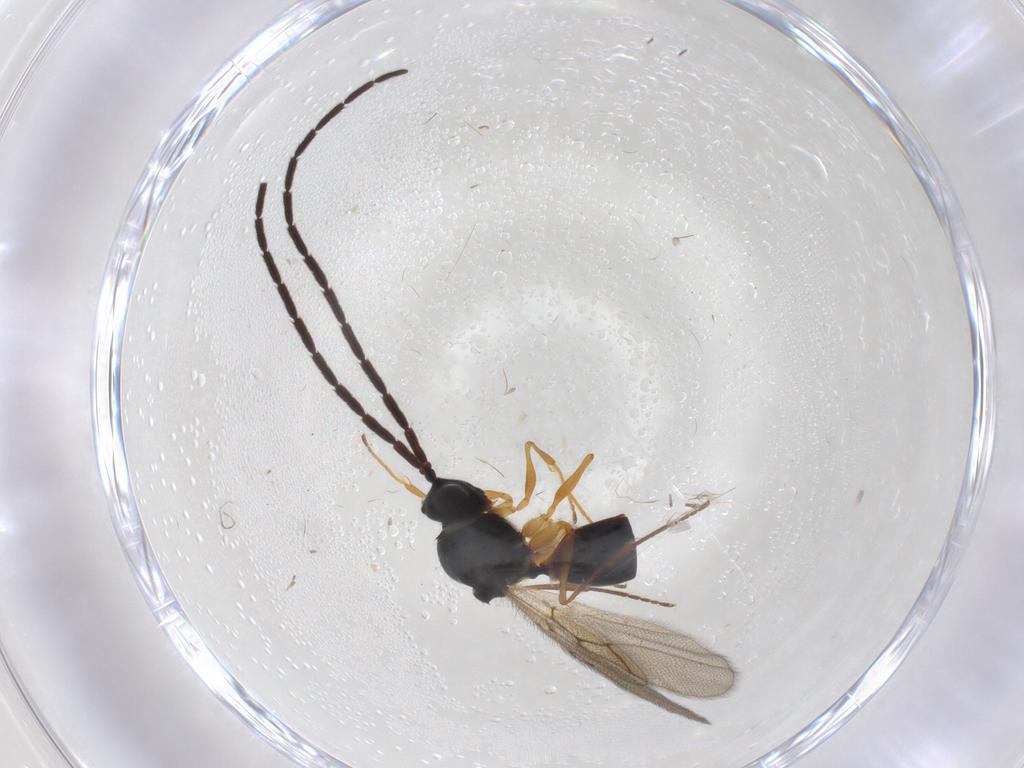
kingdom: Animalia
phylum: Arthropoda
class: Insecta
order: Hymenoptera
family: Figitidae
